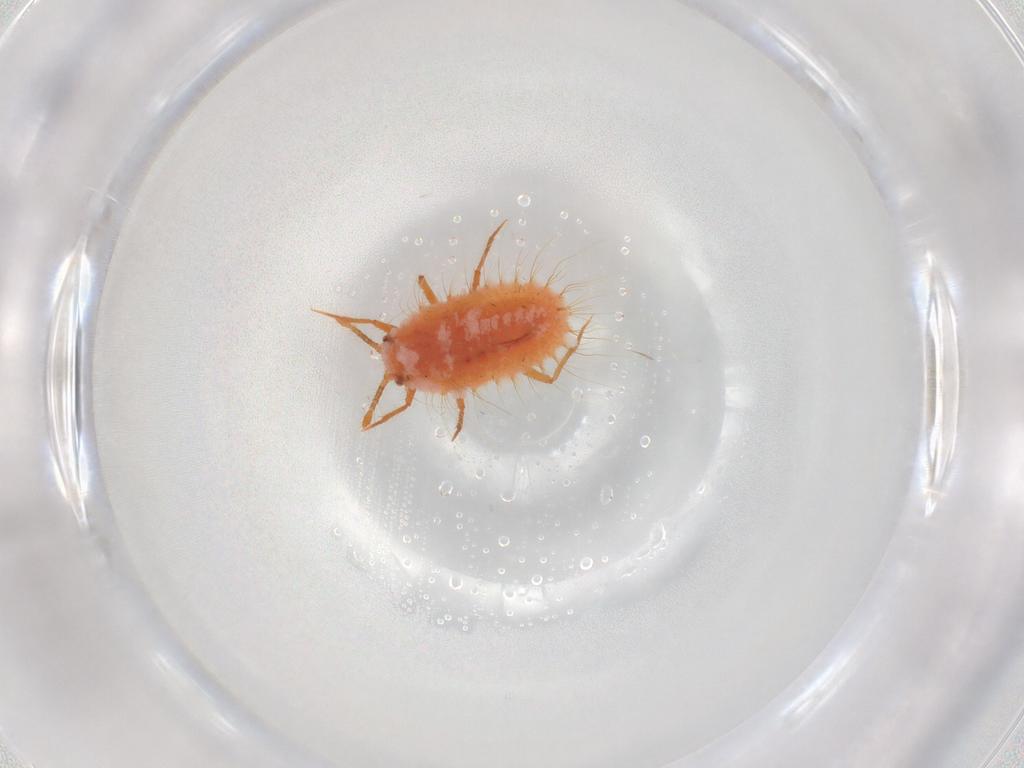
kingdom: Animalia
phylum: Arthropoda
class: Insecta
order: Hemiptera
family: Coccoidea_incertae_sedis
